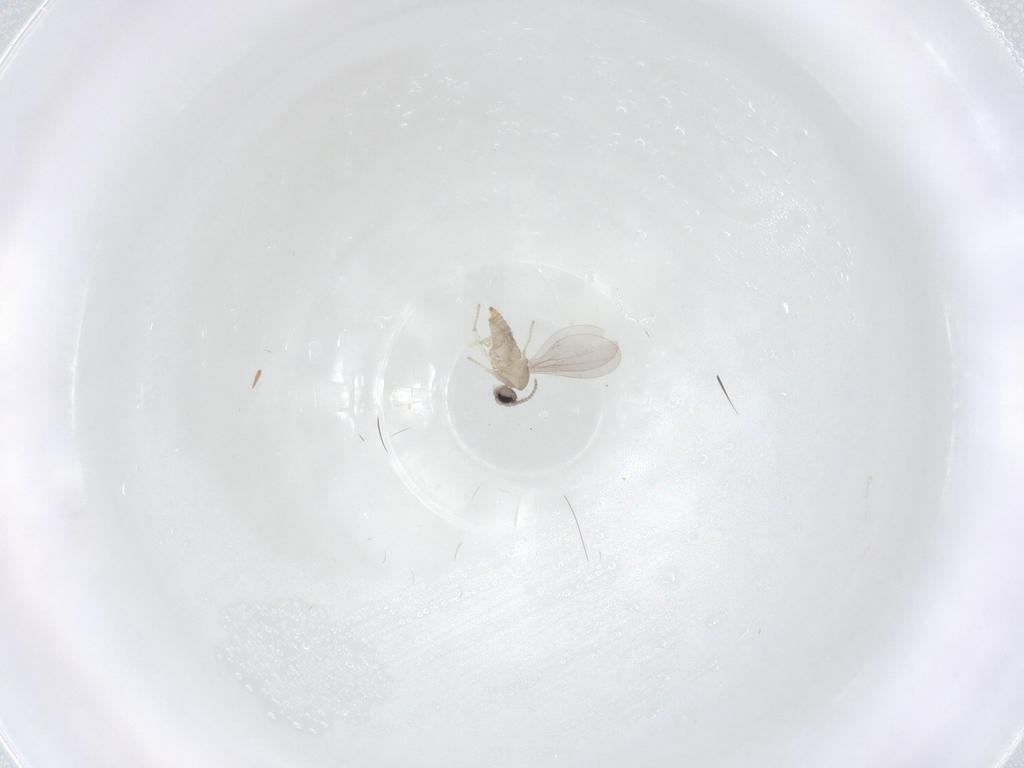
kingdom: Animalia
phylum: Arthropoda
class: Insecta
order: Diptera
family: Cecidomyiidae
